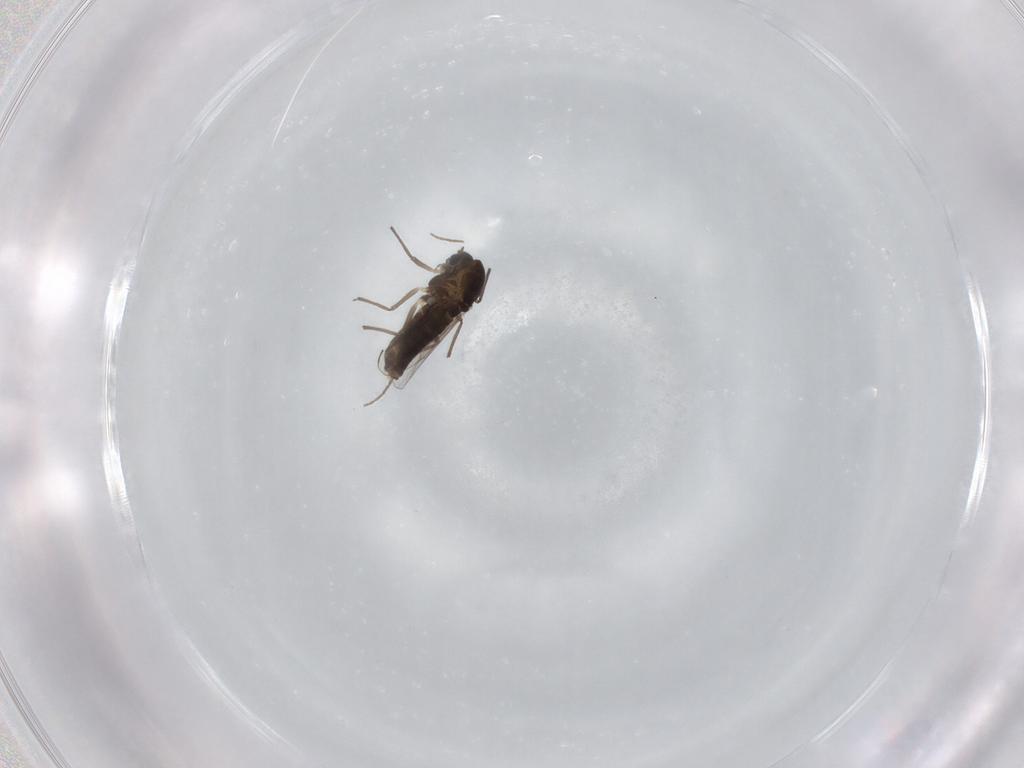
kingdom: Animalia
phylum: Arthropoda
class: Insecta
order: Diptera
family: Chironomidae
